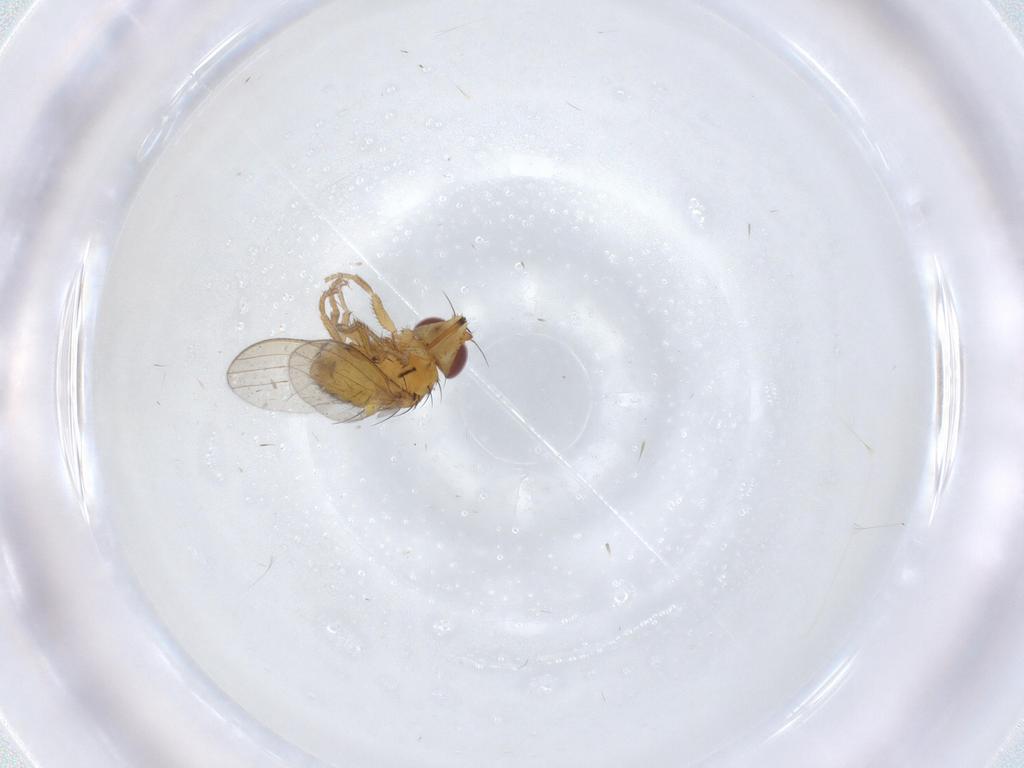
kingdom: Animalia
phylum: Arthropoda
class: Insecta
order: Diptera
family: Milichiidae
